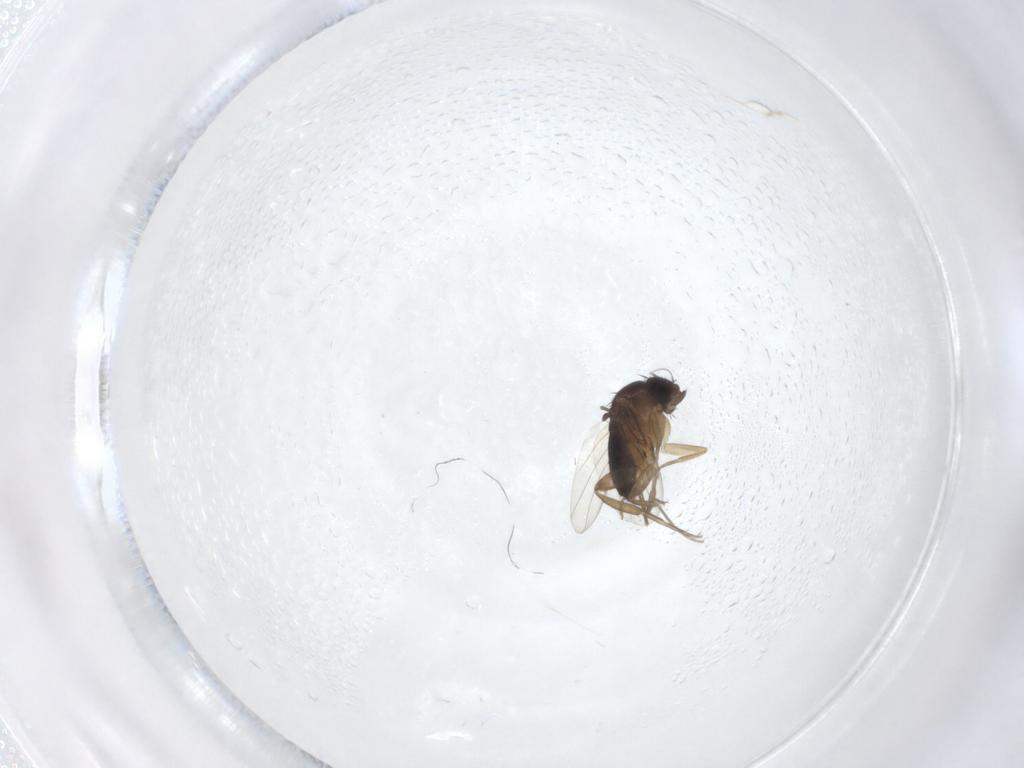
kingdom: Animalia
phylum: Arthropoda
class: Insecta
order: Diptera
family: Phoridae
